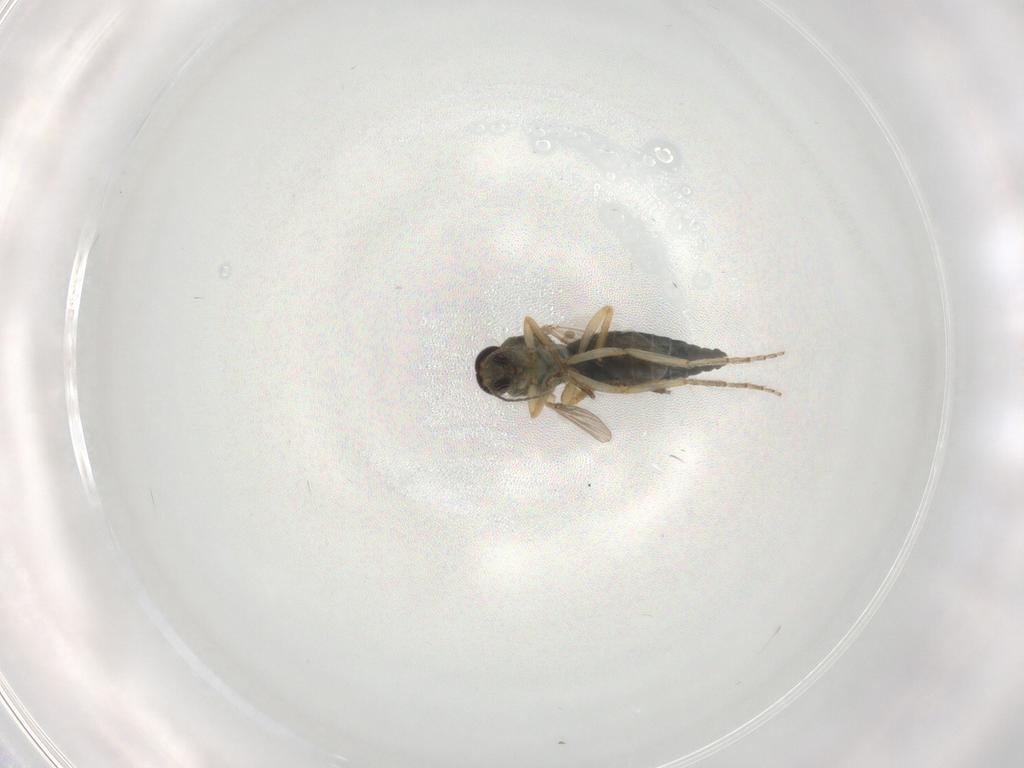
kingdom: Animalia
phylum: Arthropoda
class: Insecta
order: Diptera
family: Ceratopogonidae
